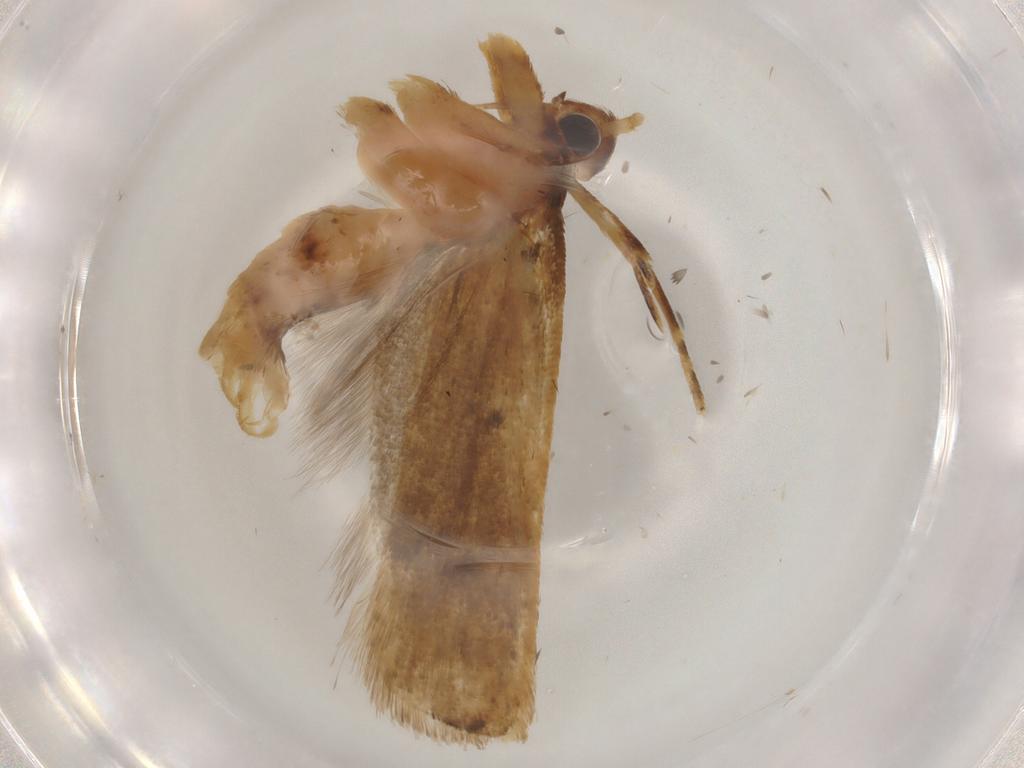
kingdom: Animalia
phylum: Arthropoda
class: Insecta
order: Lepidoptera
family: Lecithoceridae
